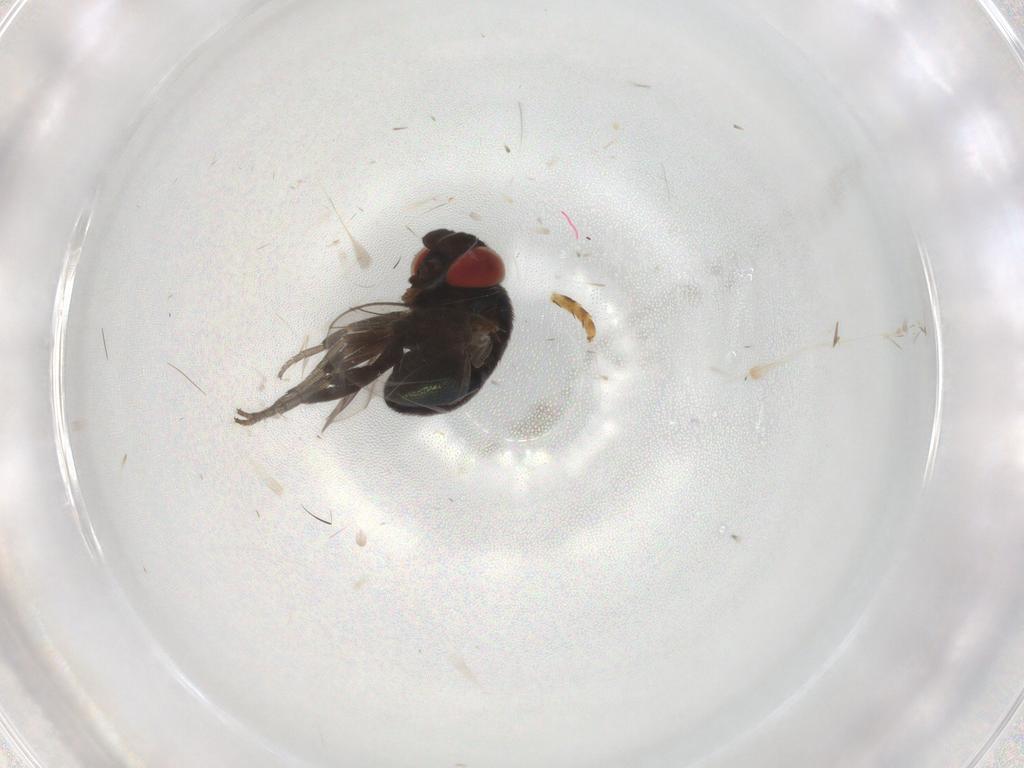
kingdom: Animalia
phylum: Arthropoda
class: Insecta
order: Diptera
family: Cryptochetidae
